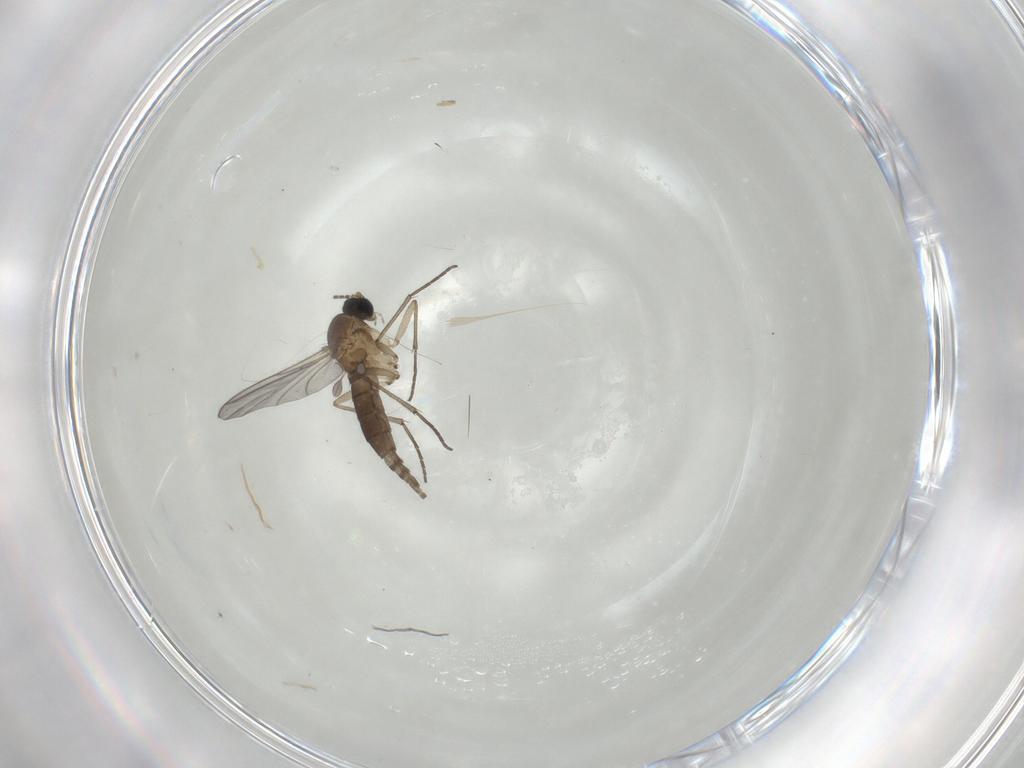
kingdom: Animalia
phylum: Arthropoda
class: Insecta
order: Diptera
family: Sciaridae
